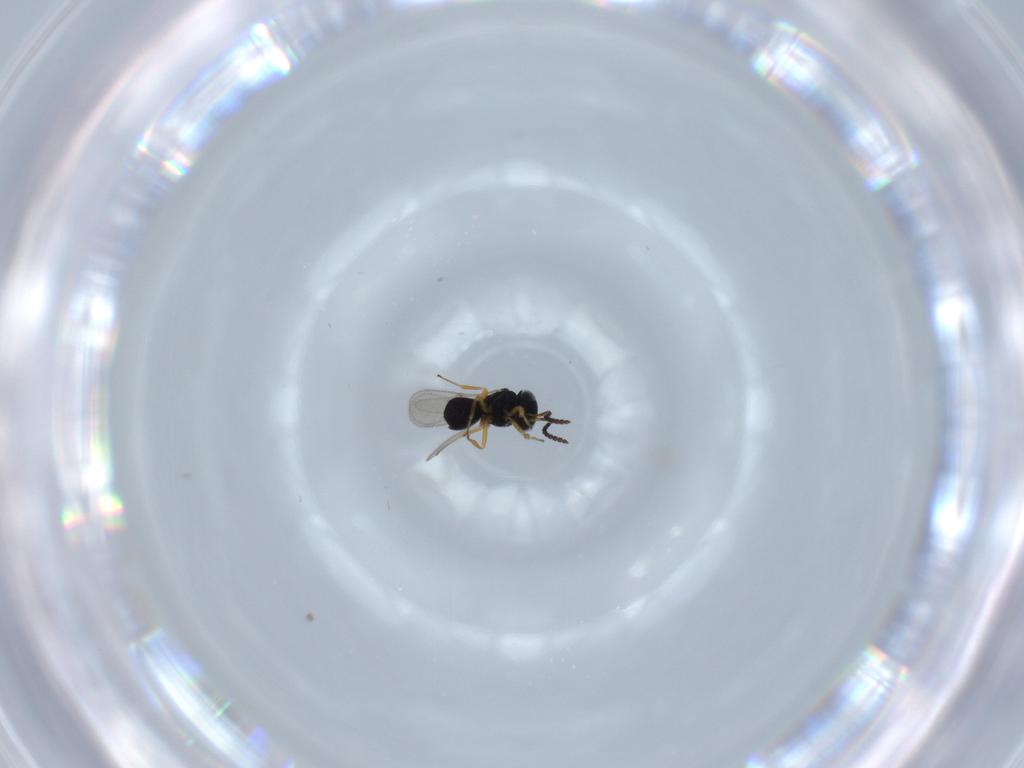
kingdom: Animalia
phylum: Arthropoda
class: Insecta
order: Hymenoptera
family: Scelionidae
